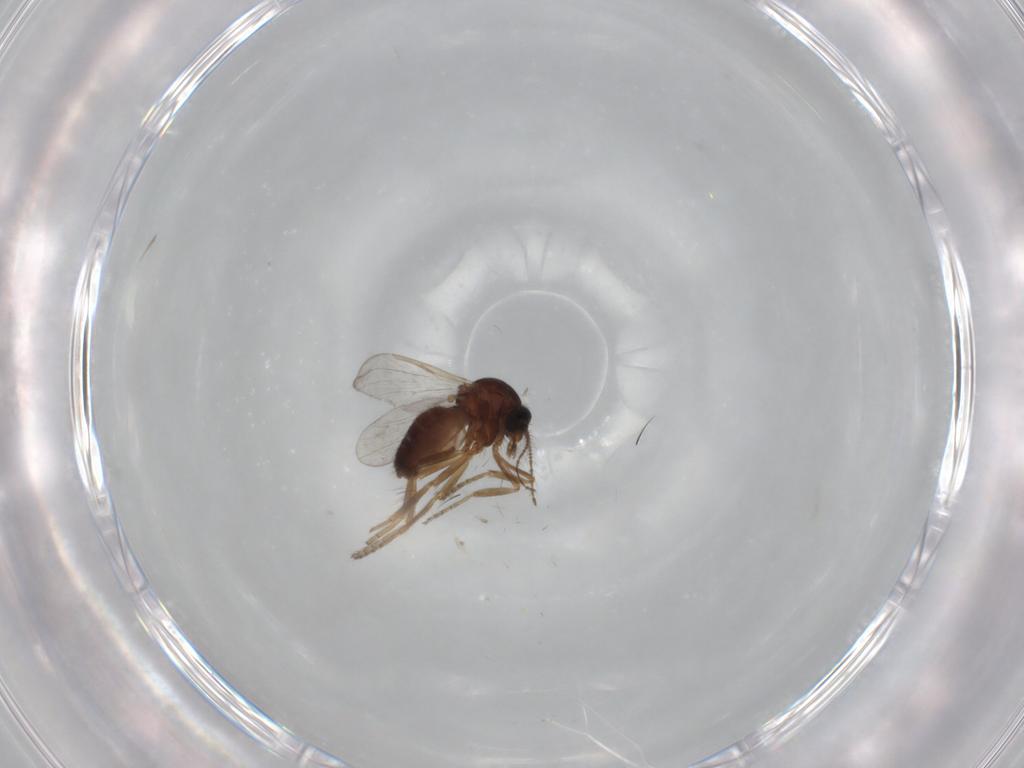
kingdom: Animalia
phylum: Arthropoda
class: Insecta
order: Diptera
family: Ceratopogonidae
